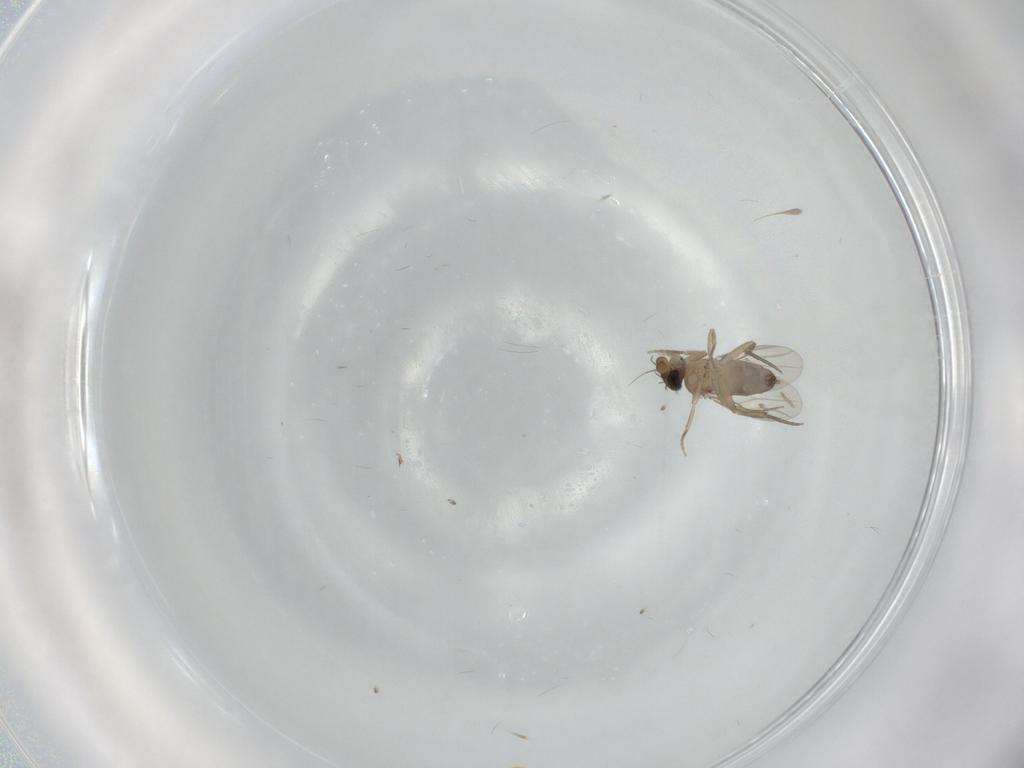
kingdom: Animalia
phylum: Arthropoda
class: Insecta
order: Diptera
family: Phoridae
